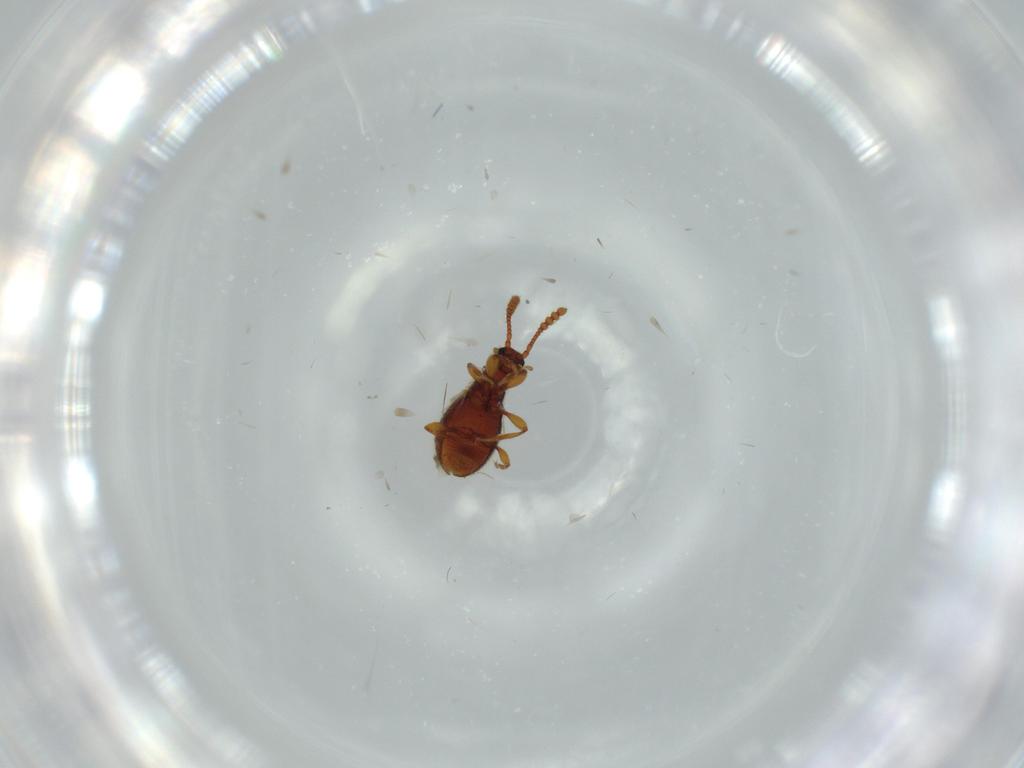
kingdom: Animalia
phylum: Arthropoda
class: Insecta
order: Coleoptera
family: Staphylinidae
